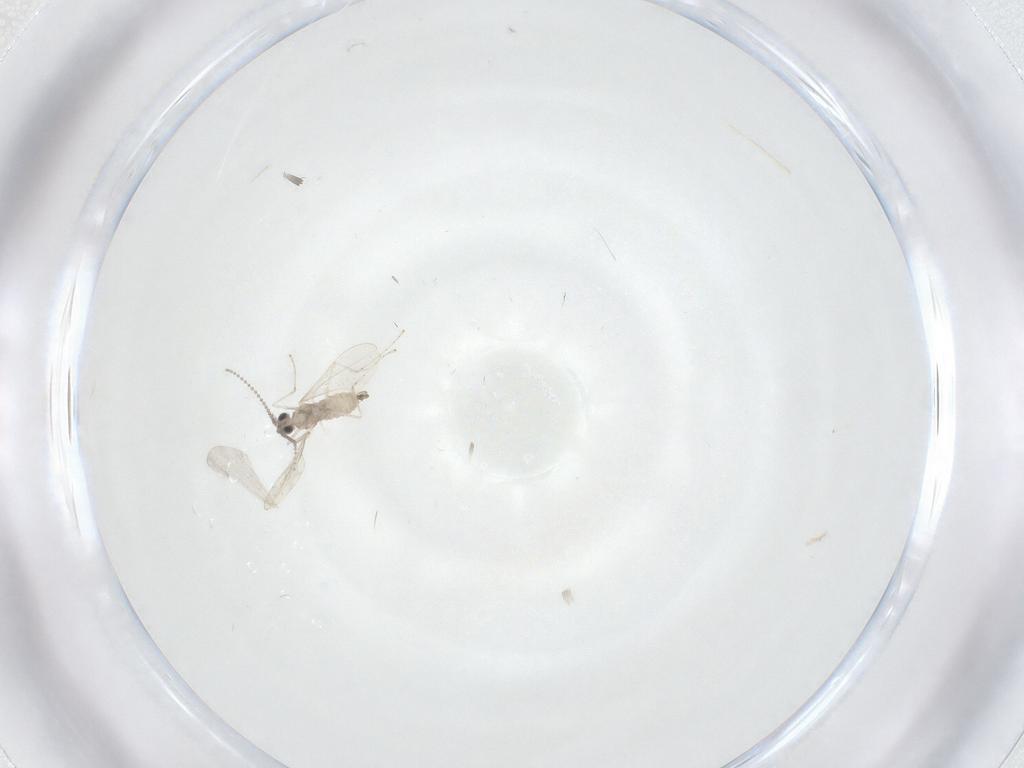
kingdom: Animalia
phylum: Arthropoda
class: Insecta
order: Diptera
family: Cecidomyiidae
